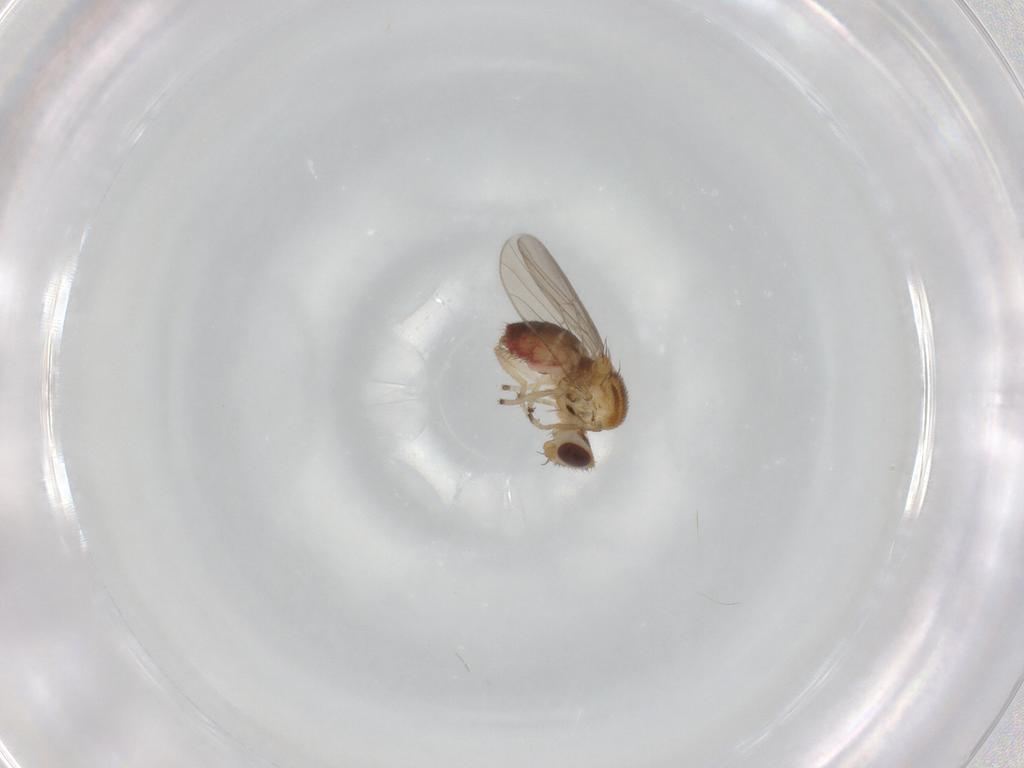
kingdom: Animalia
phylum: Arthropoda
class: Insecta
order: Diptera
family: Chloropidae
